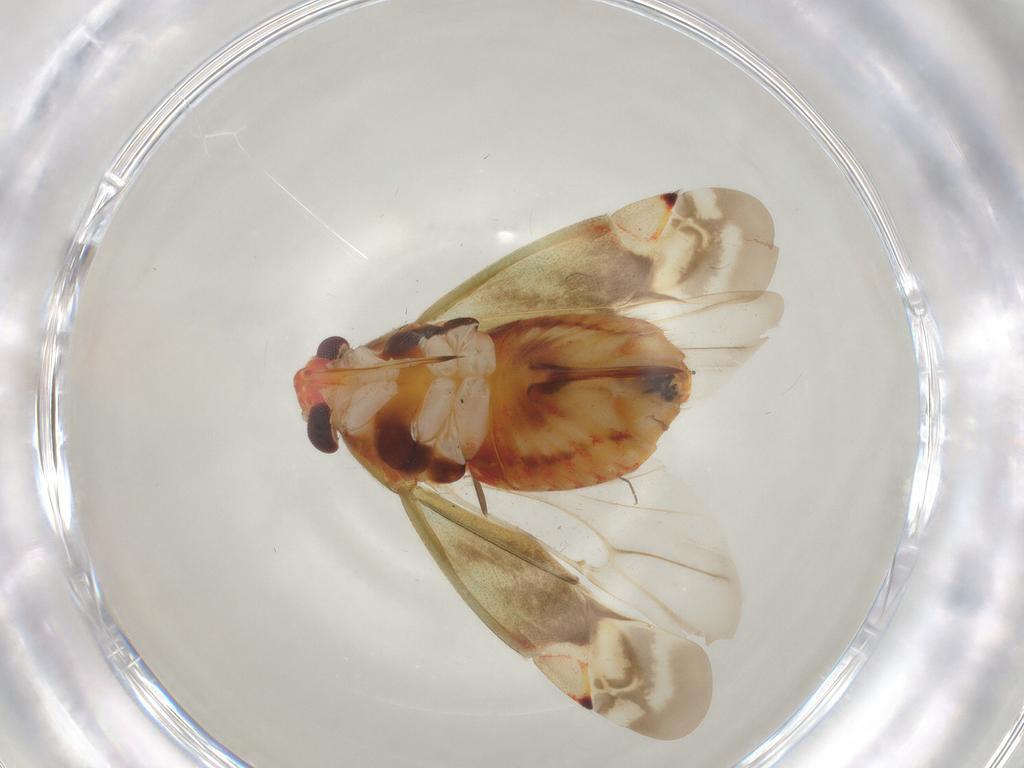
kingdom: Animalia
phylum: Arthropoda
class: Insecta
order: Hemiptera
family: Miridae
